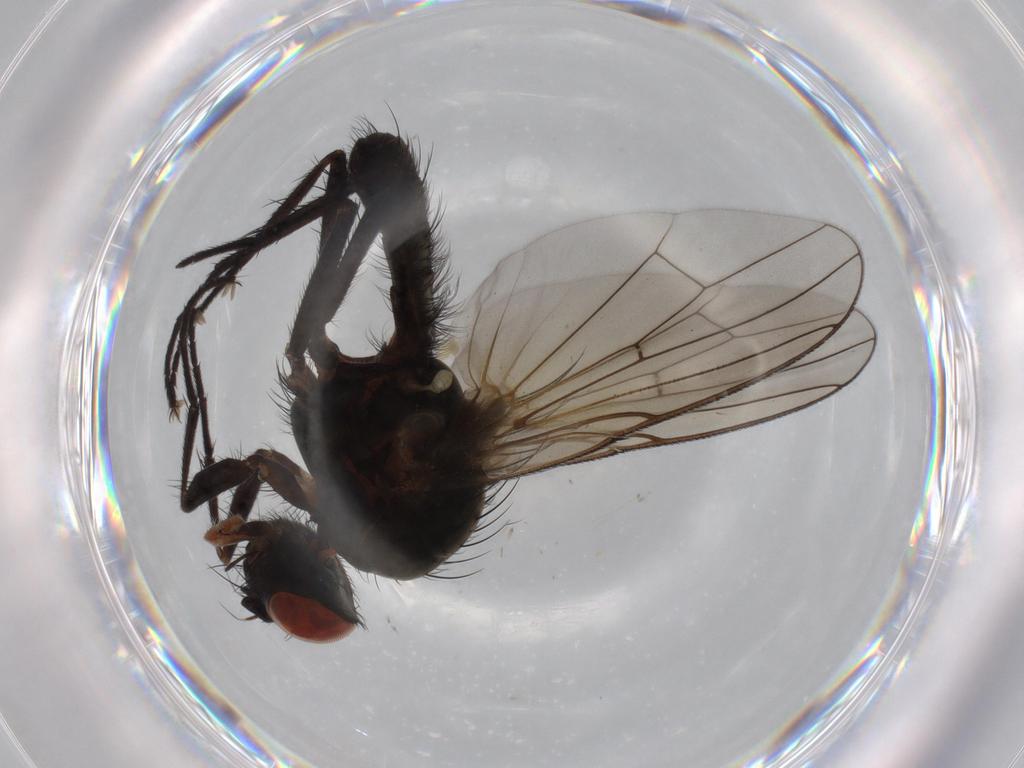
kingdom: Animalia
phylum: Arthropoda
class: Insecta
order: Diptera
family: Anthomyiidae
